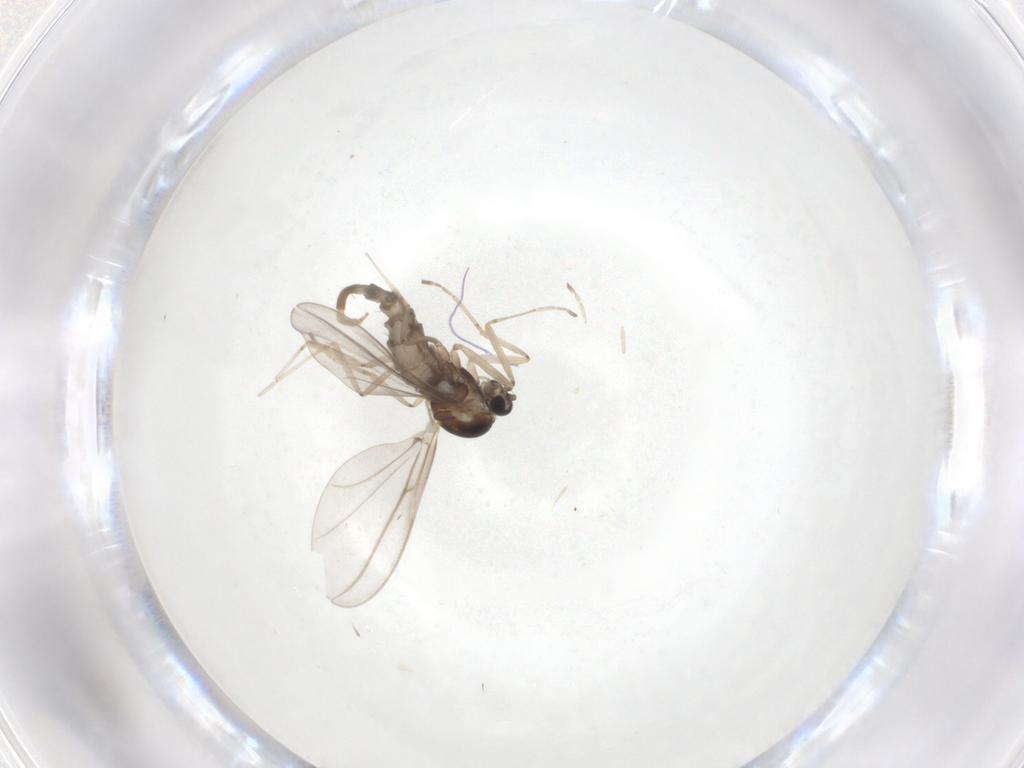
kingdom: Animalia
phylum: Arthropoda
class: Insecta
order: Diptera
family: Cecidomyiidae
